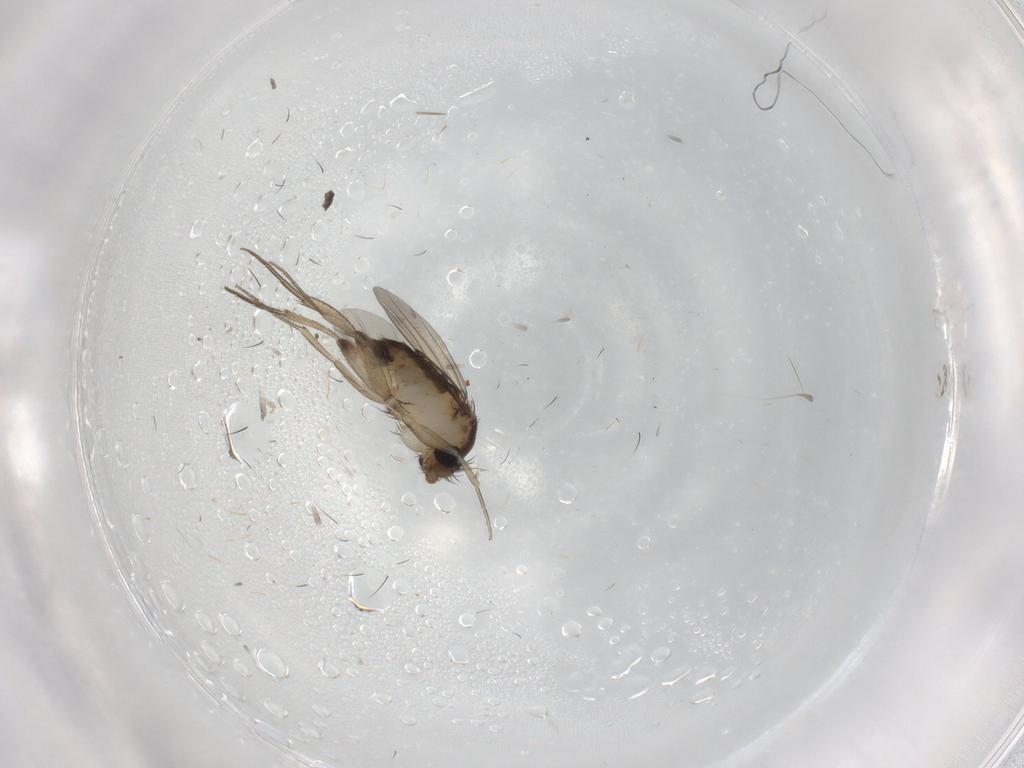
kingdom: Animalia
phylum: Arthropoda
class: Insecta
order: Diptera
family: Phoridae
